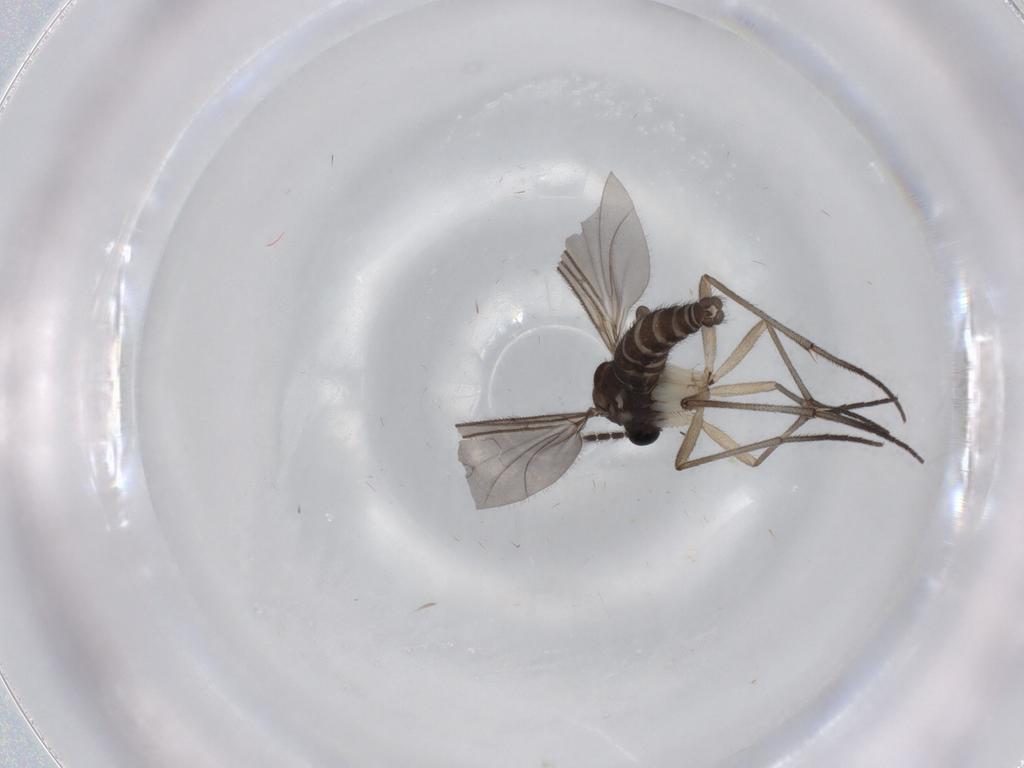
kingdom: Animalia
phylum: Arthropoda
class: Insecta
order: Diptera
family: Sciaridae
